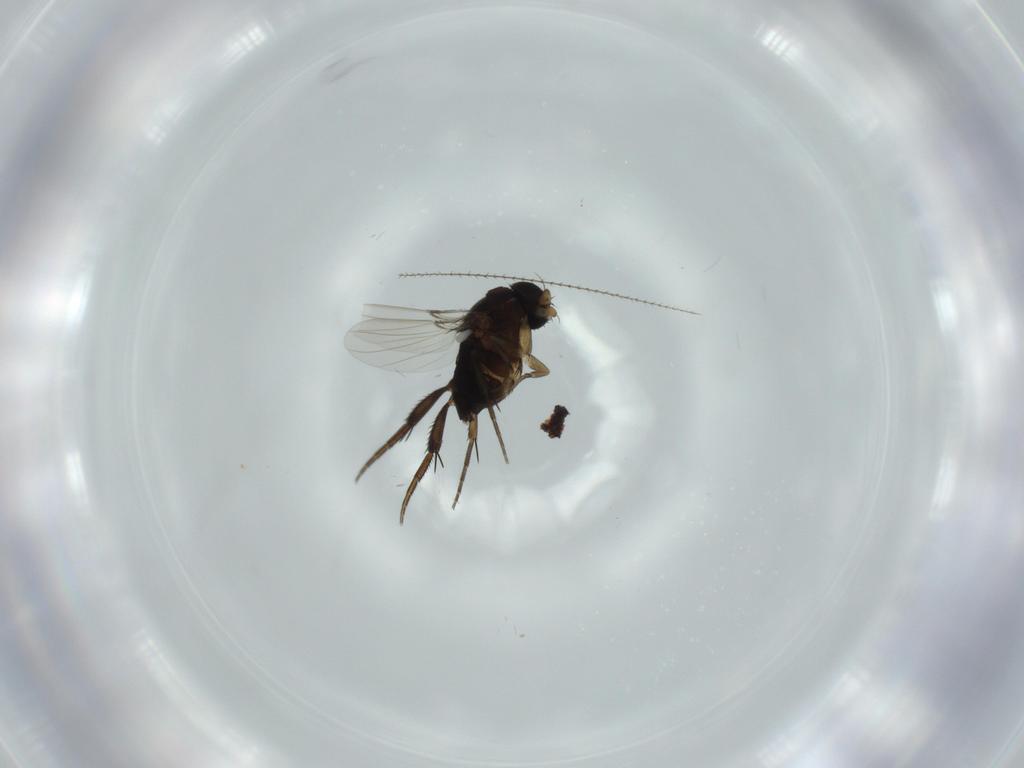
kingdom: Animalia
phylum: Arthropoda
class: Insecta
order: Diptera
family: Phoridae
